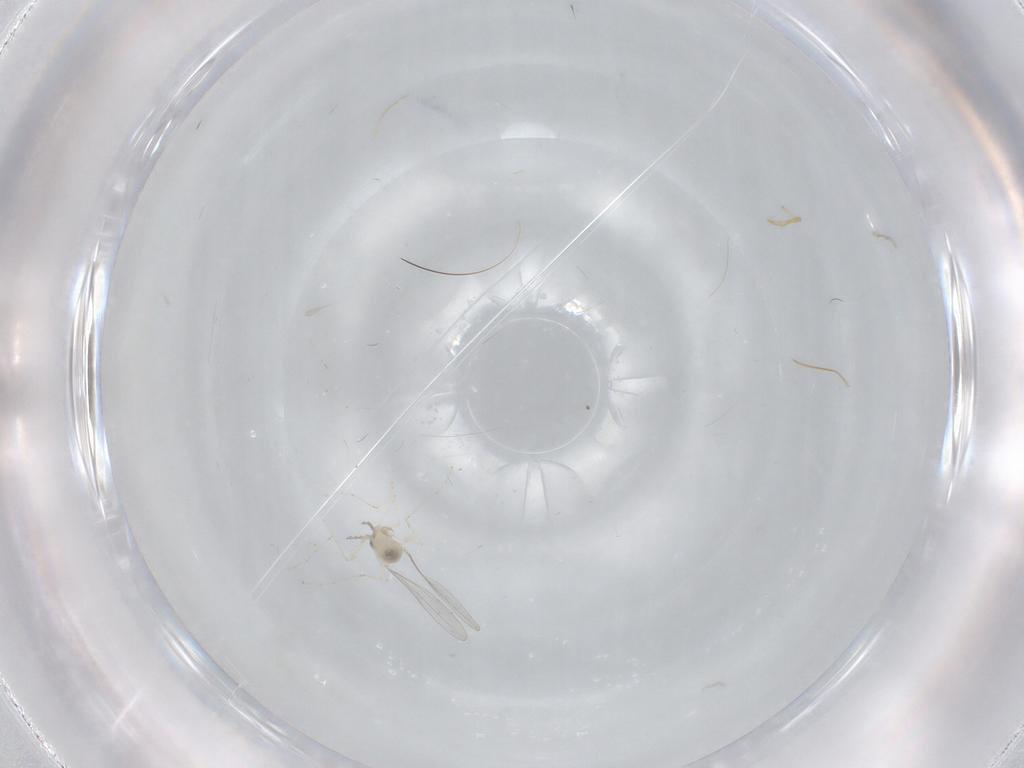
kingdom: Animalia
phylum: Arthropoda
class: Insecta
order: Diptera
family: Cecidomyiidae
